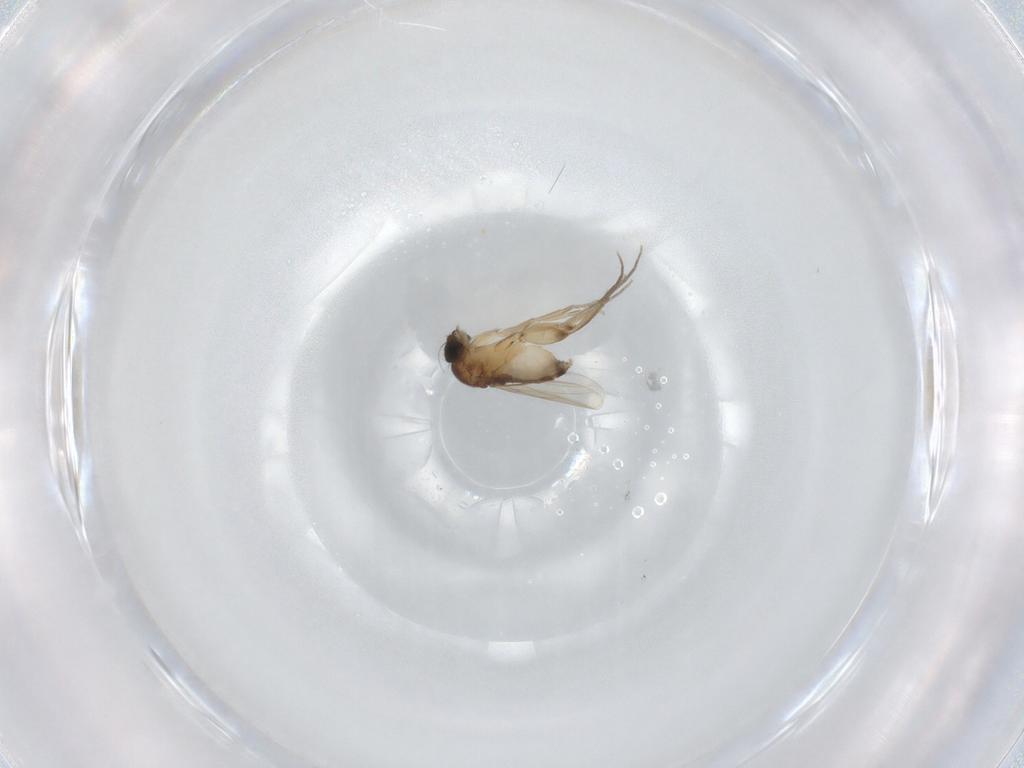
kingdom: Animalia
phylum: Arthropoda
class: Insecta
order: Diptera
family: Phoridae
